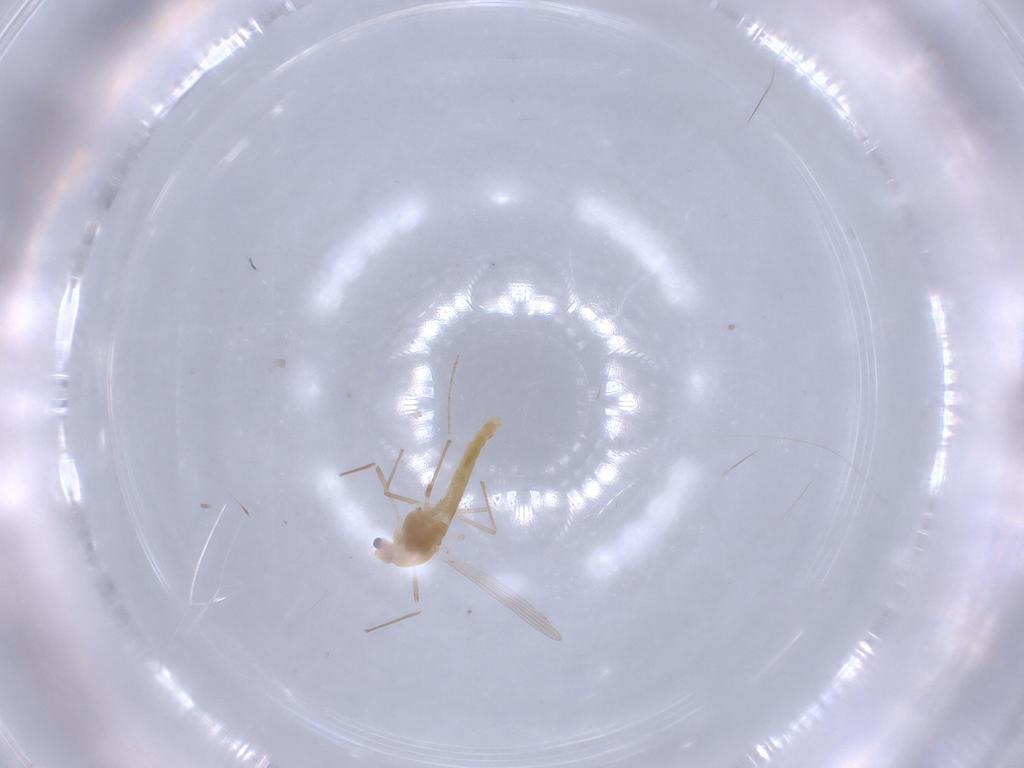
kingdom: Animalia
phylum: Arthropoda
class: Insecta
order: Diptera
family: Chironomidae
